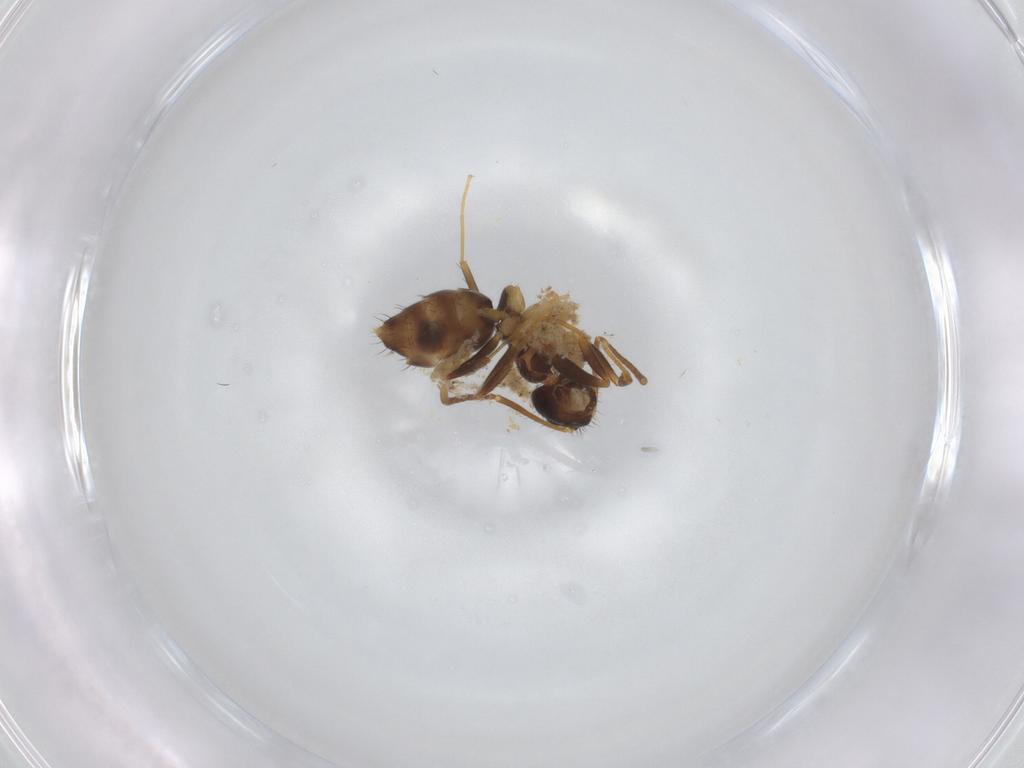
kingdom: Animalia
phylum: Arthropoda
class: Insecta
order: Hymenoptera
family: Formicidae
